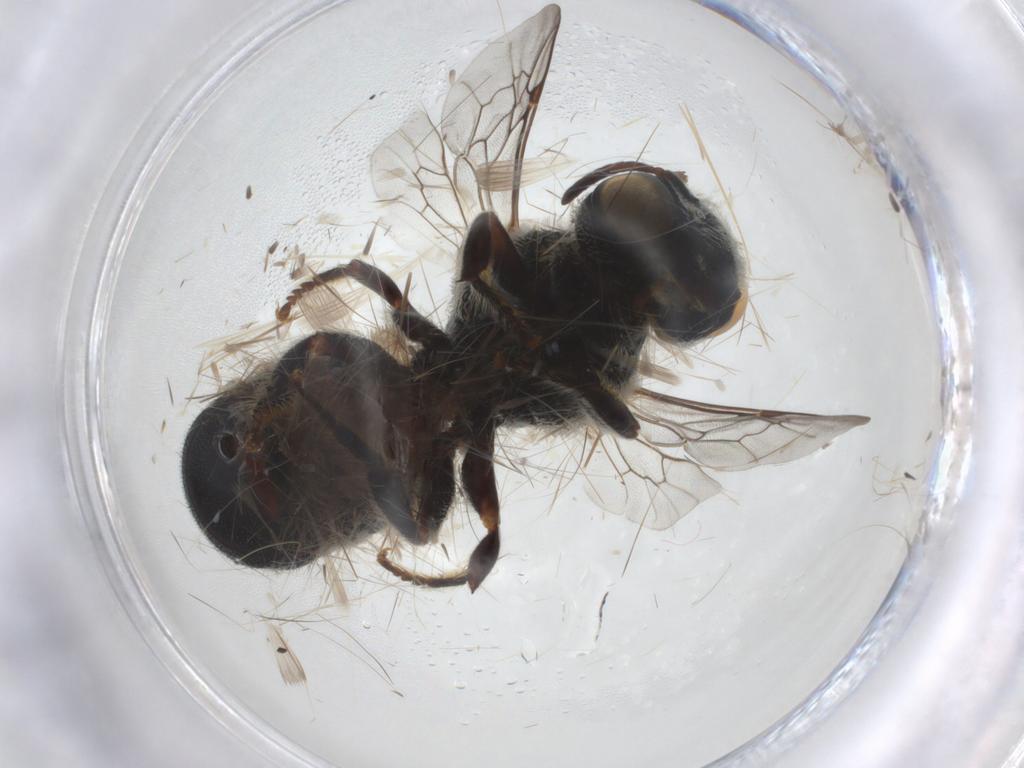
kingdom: Animalia
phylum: Arthropoda
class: Insecta
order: Hymenoptera
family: Megachilidae
